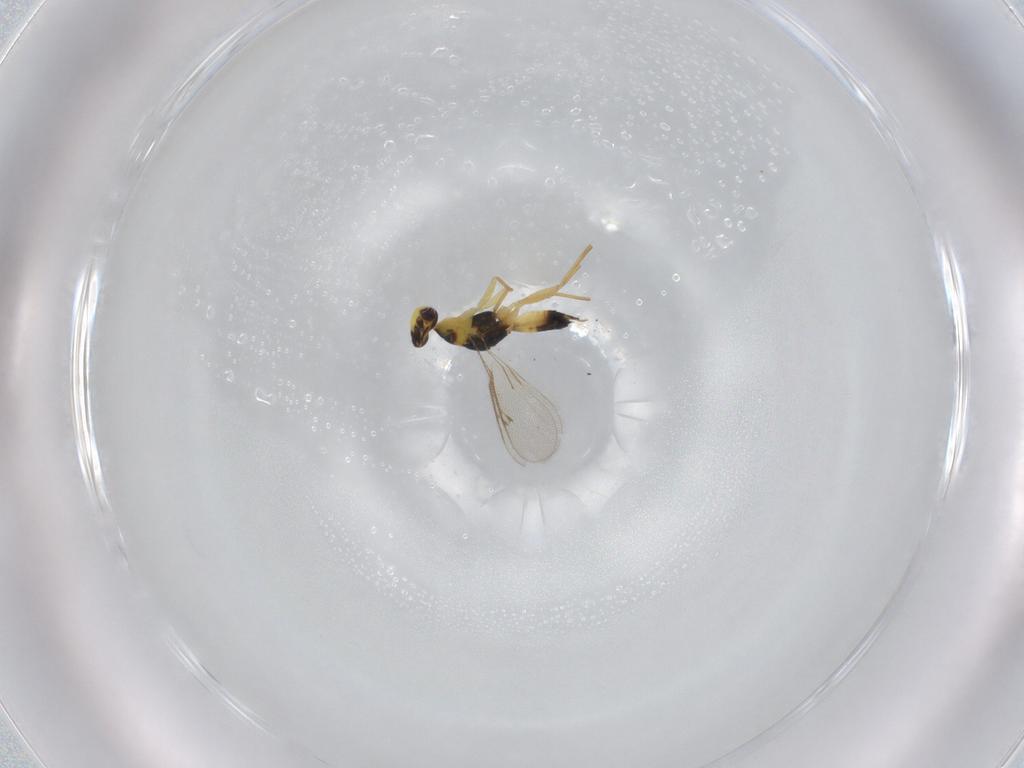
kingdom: Animalia
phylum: Arthropoda
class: Insecta
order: Hymenoptera
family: Eulophidae
